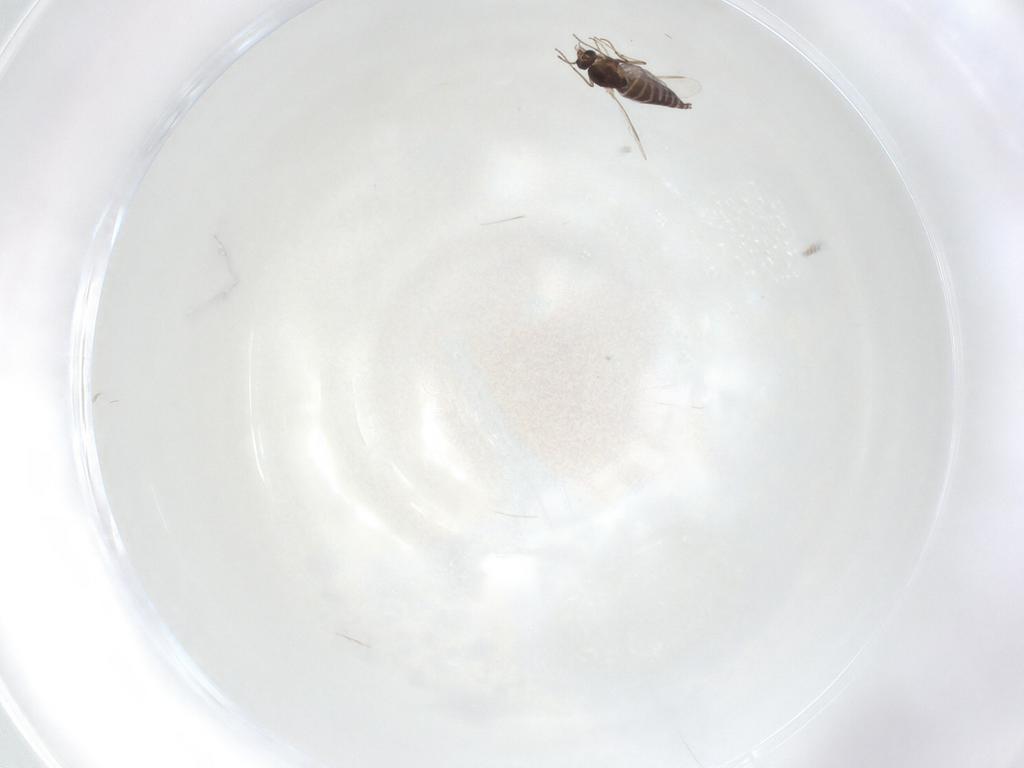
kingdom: Animalia
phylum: Arthropoda
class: Insecta
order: Diptera
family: Chironomidae
